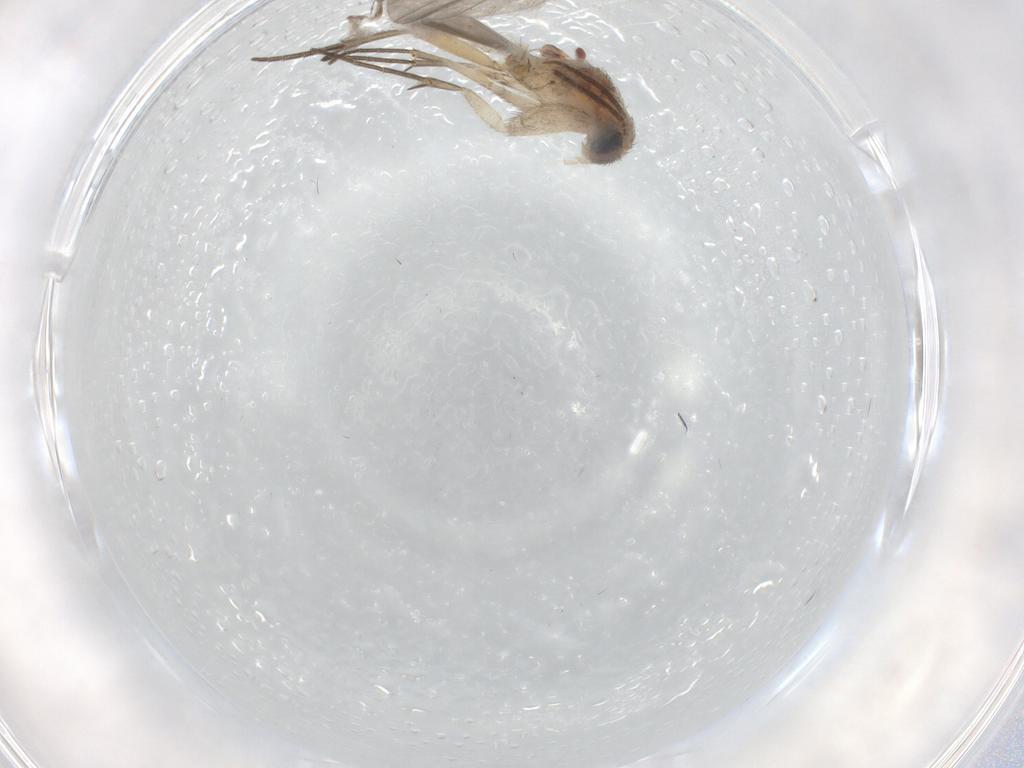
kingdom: Animalia
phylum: Arthropoda
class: Insecta
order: Diptera
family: Mycetophilidae
